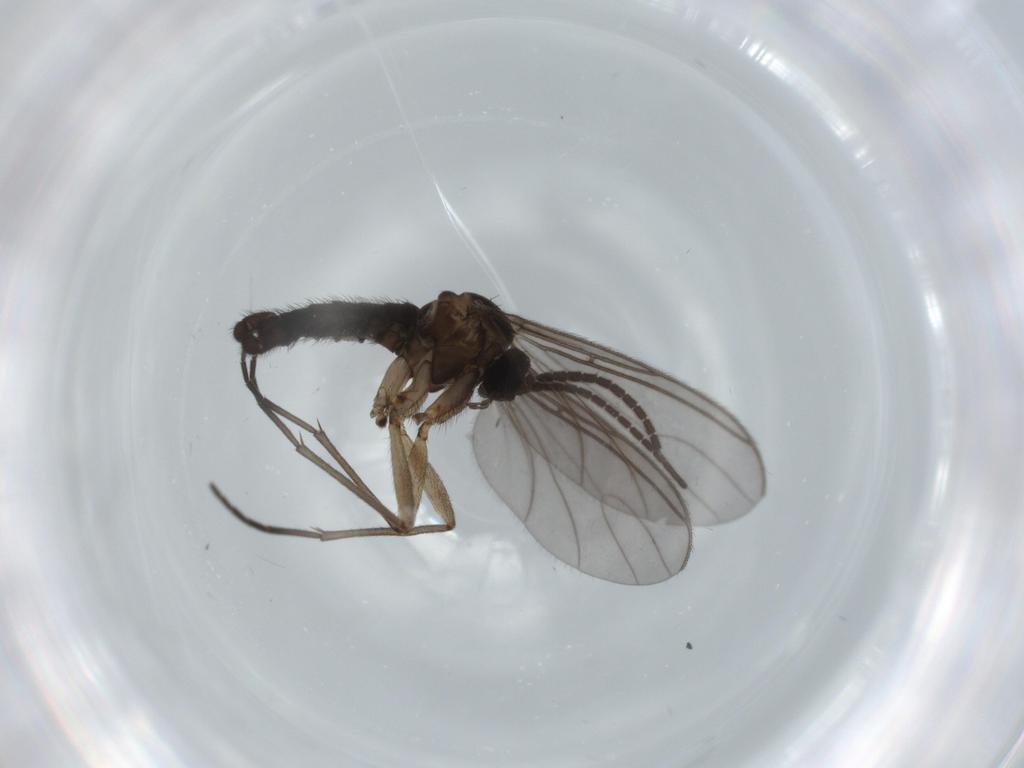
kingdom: Animalia
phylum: Arthropoda
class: Insecta
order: Diptera
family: Sciaridae
